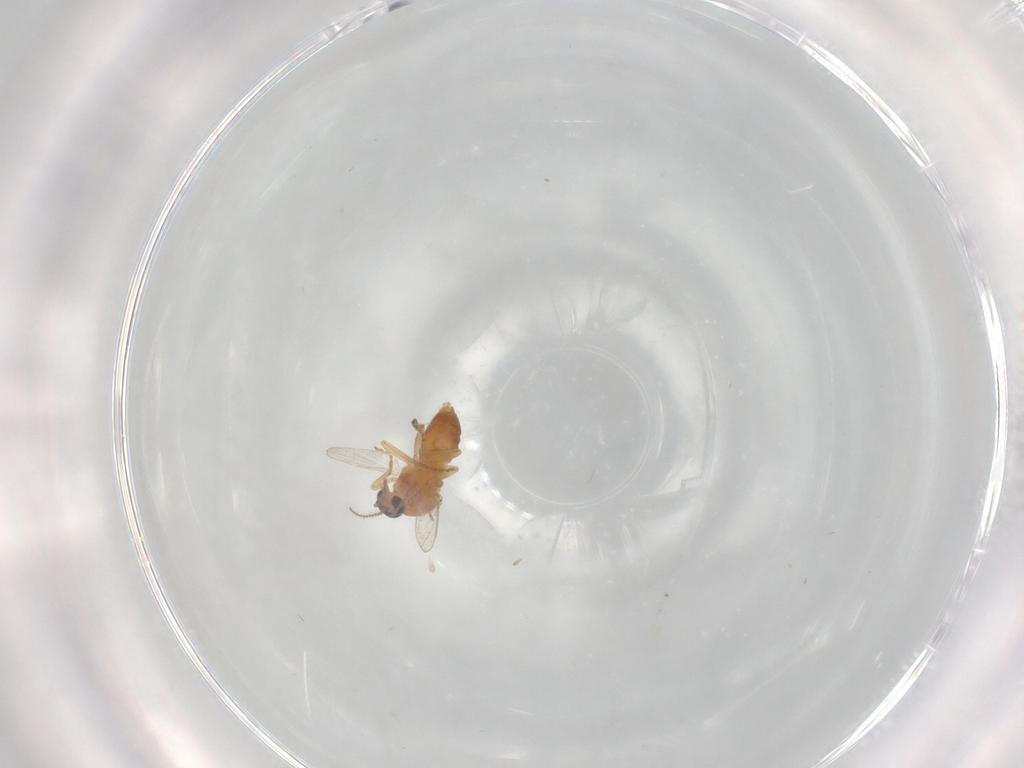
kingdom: Animalia
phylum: Arthropoda
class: Insecta
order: Diptera
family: Ceratopogonidae
